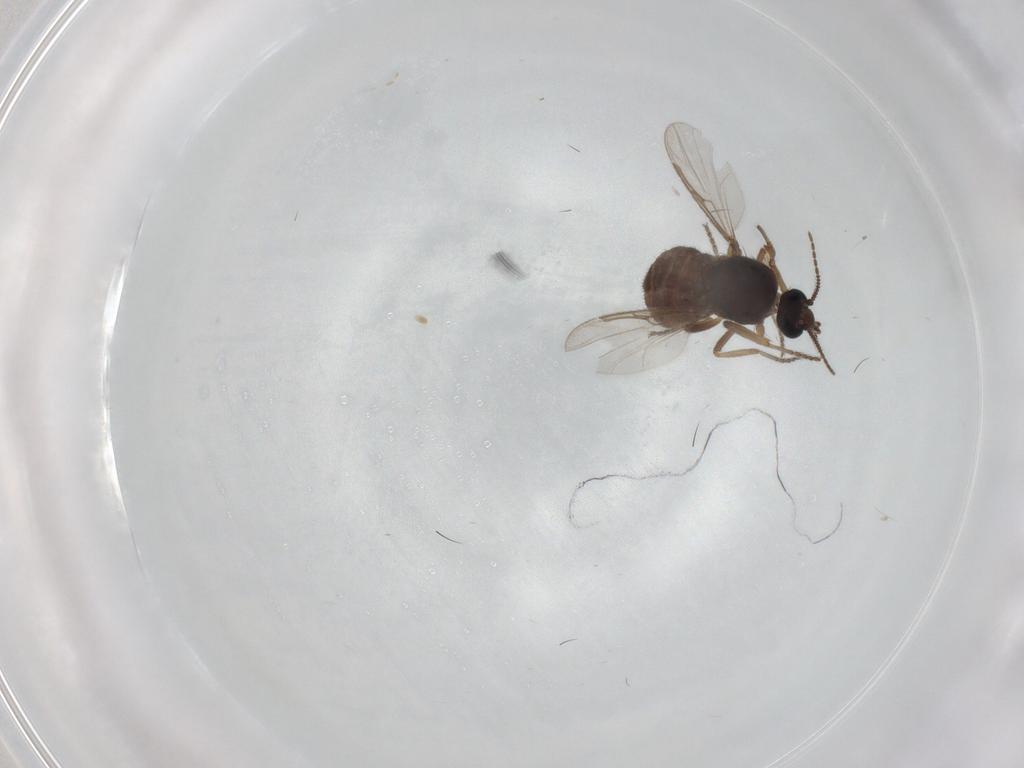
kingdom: Animalia
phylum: Arthropoda
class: Insecta
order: Diptera
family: Ceratopogonidae
